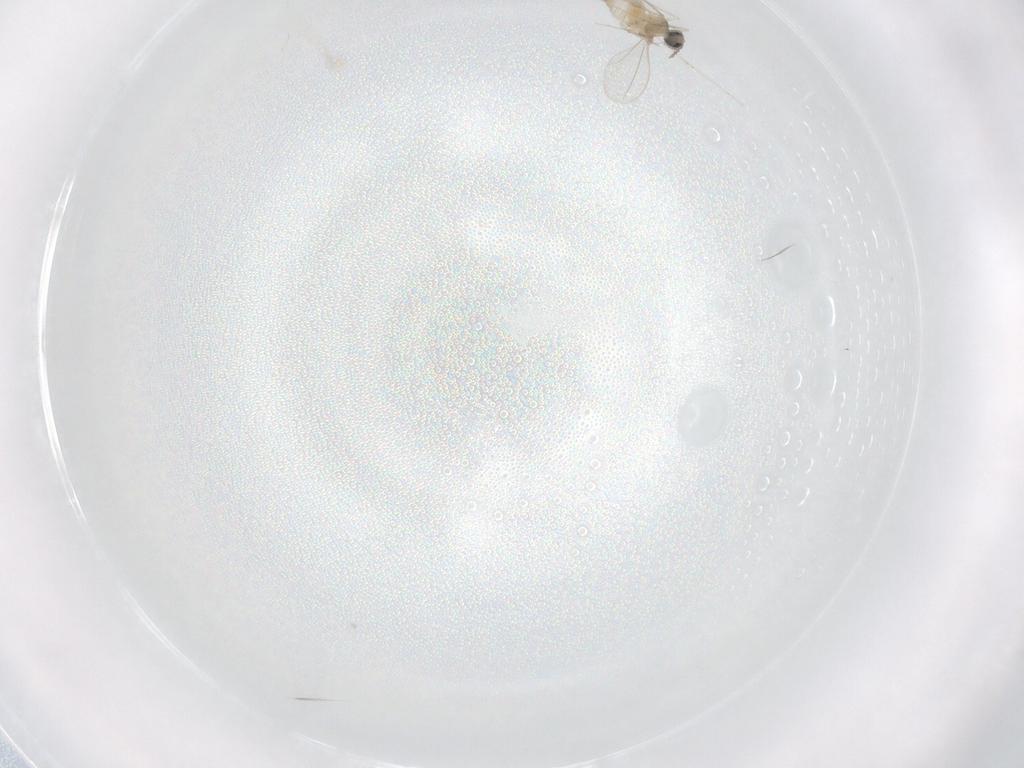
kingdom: Animalia
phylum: Arthropoda
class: Insecta
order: Diptera
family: Cecidomyiidae
